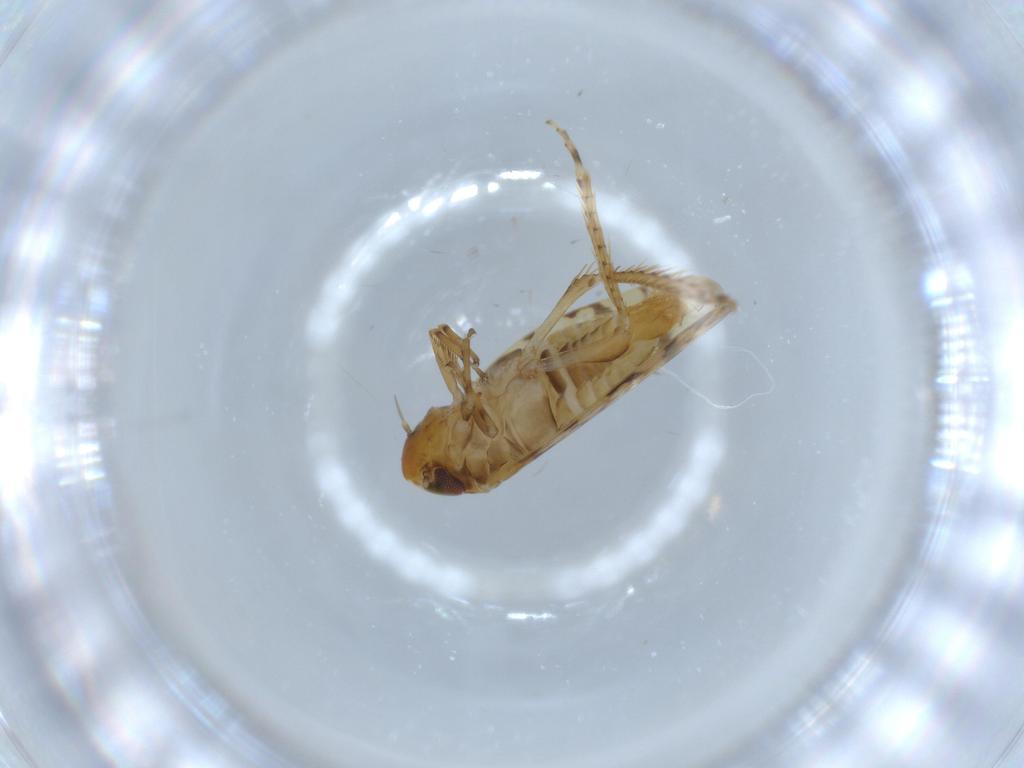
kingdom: Animalia
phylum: Arthropoda
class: Insecta
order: Hemiptera
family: Cicadellidae
